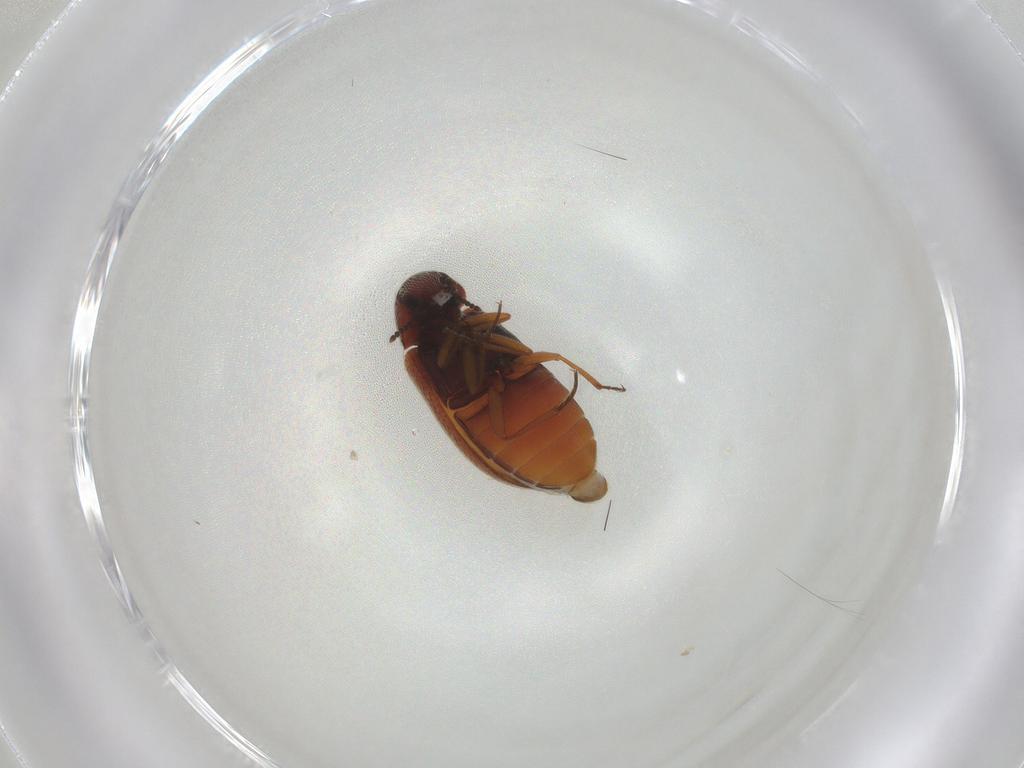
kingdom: Animalia
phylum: Arthropoda
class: Insecta
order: Coleoptera
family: Rhadalidae
